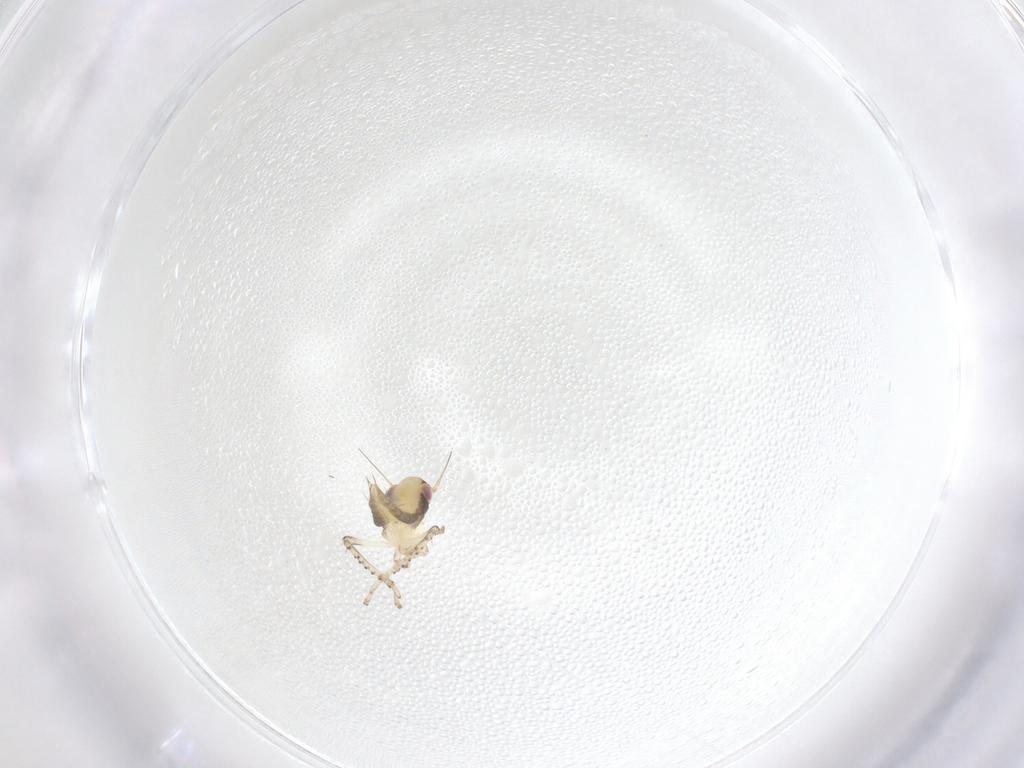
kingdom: Animalia
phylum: Arthropoda
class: Insecta
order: Hemiptera
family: Cicadellidae
